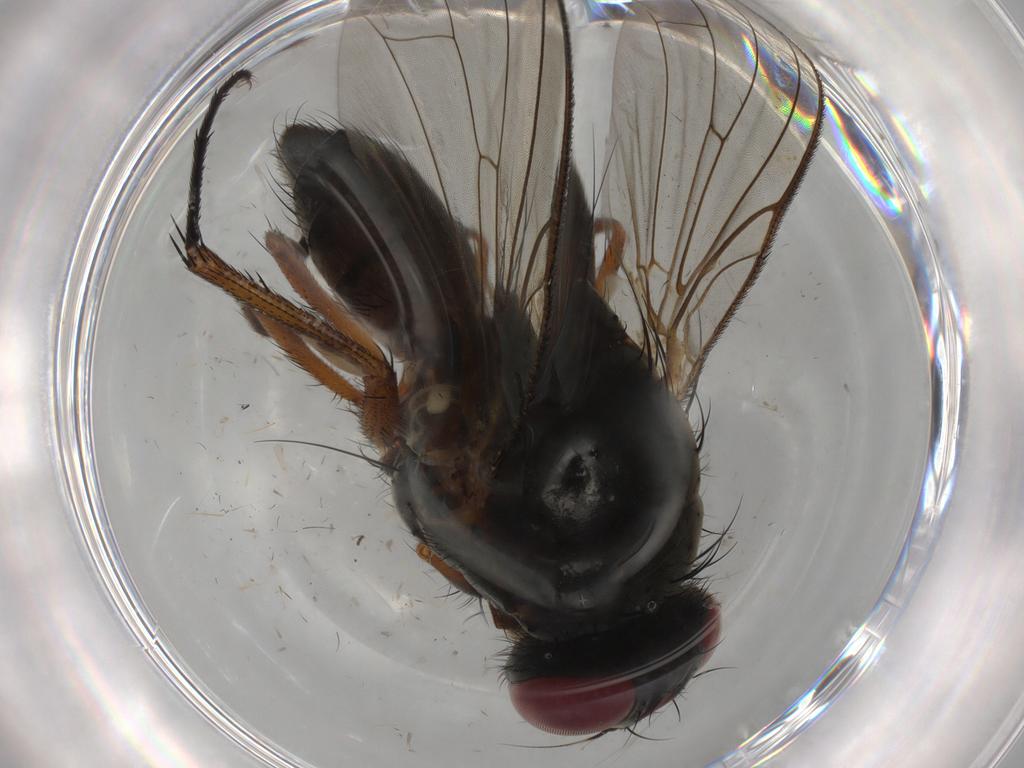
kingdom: Animalia
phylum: Arthropoda
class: Insecta
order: Diptera
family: Anthomyiidae
